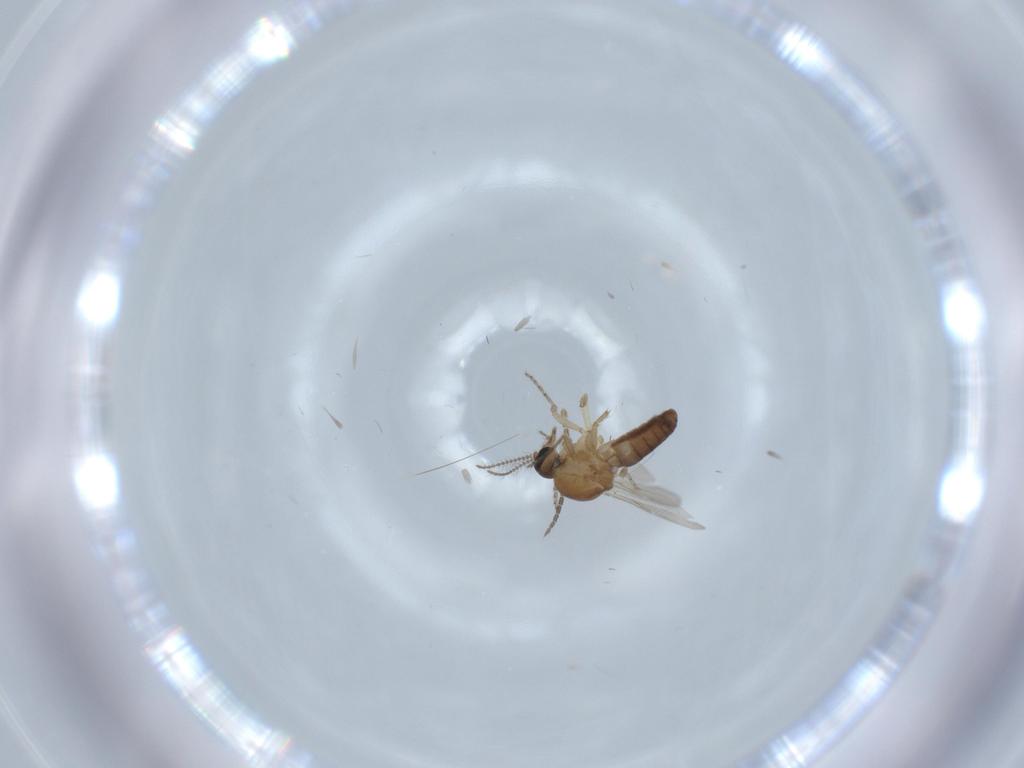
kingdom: Animalia
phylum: Arthropoda
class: Insecta
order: Diptera
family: Ceratopogonidae
